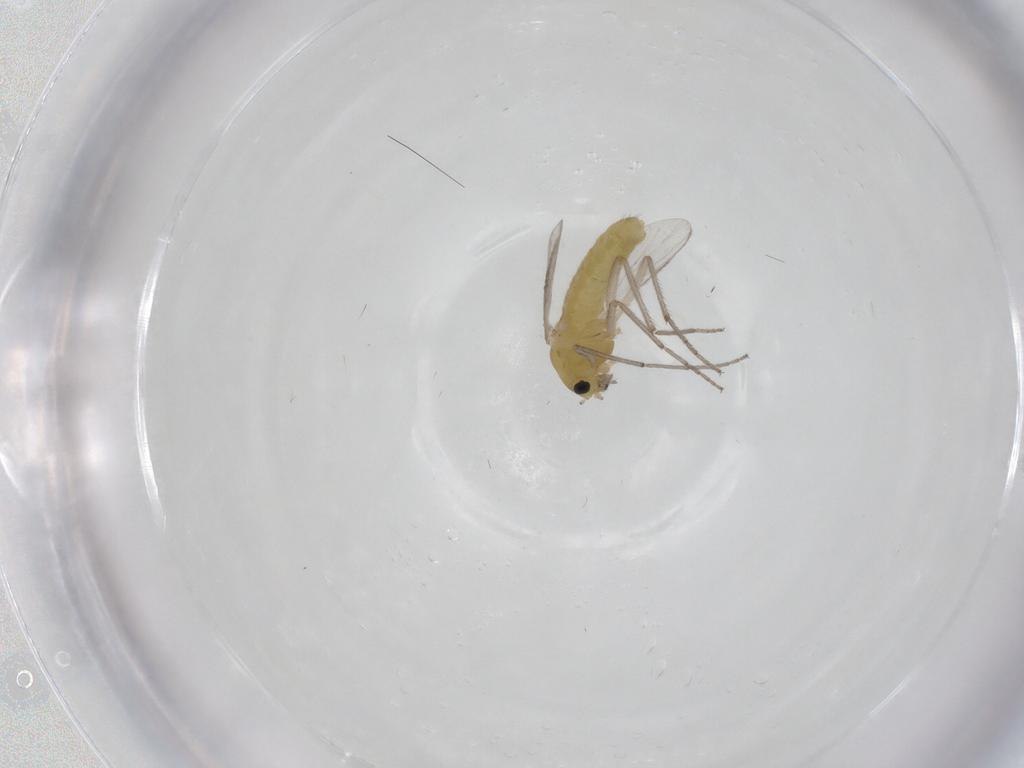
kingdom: Animalia
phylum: Arthropoda
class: Insecta
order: Diptera
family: Chironomidae
